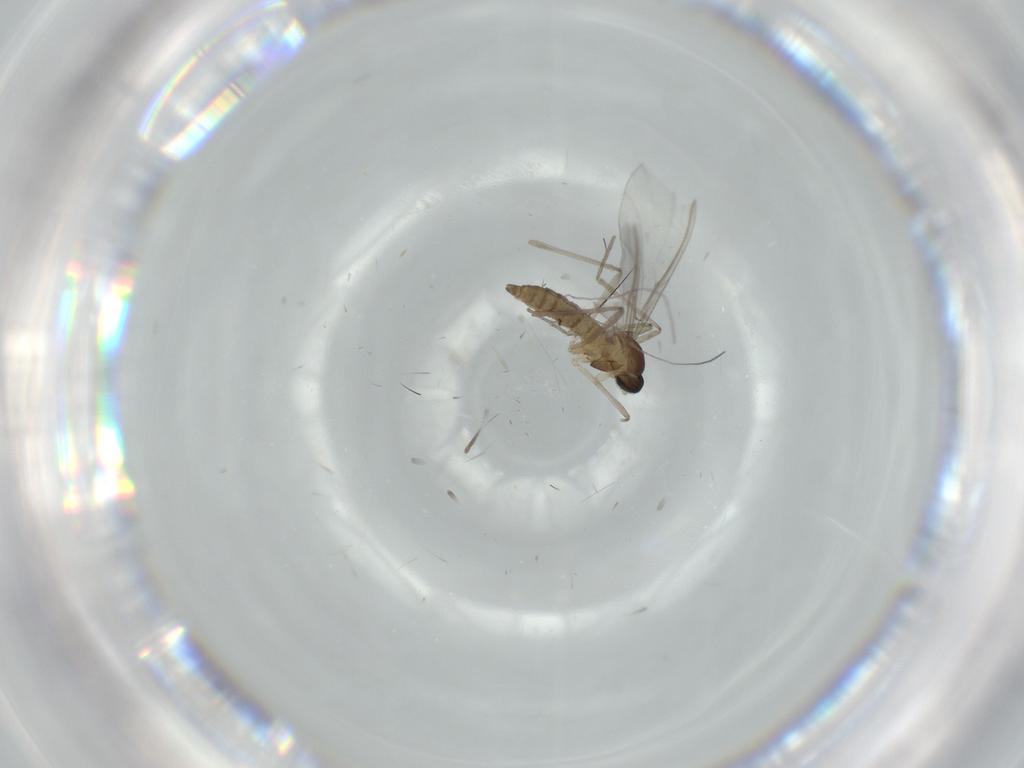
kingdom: Animalia
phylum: Arthropoda
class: Insecta
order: Diptera
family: Cecidomyiidae
